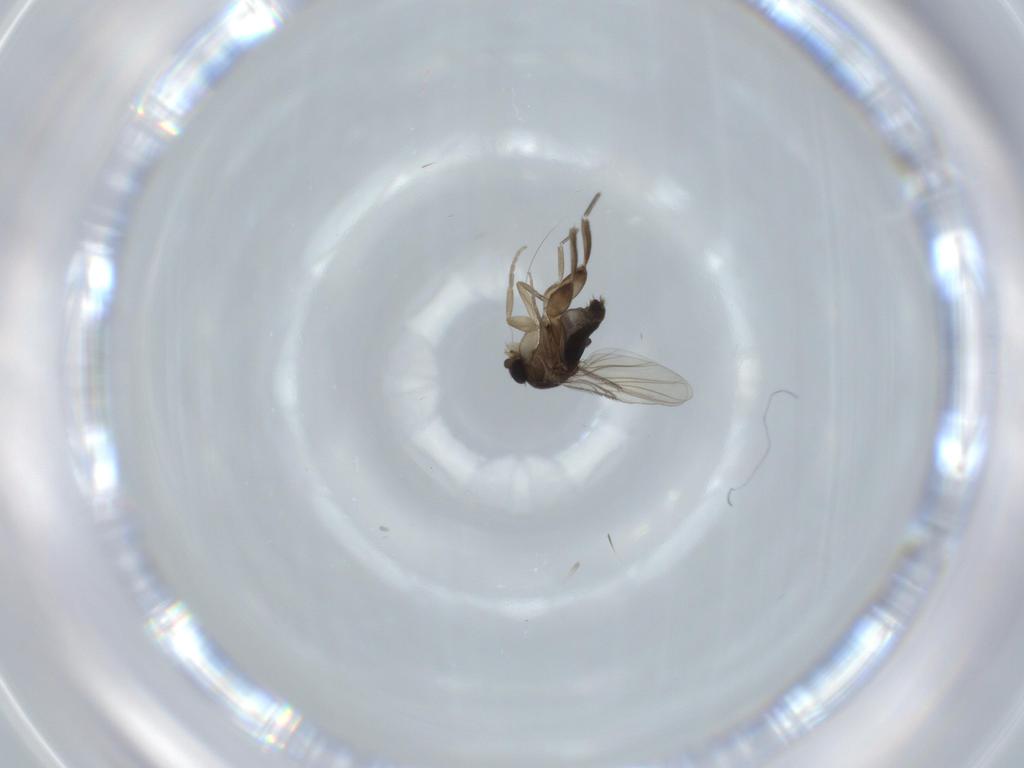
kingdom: Animalia
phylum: Arthropoda
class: Insecta
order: Diptera
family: Phoridae
